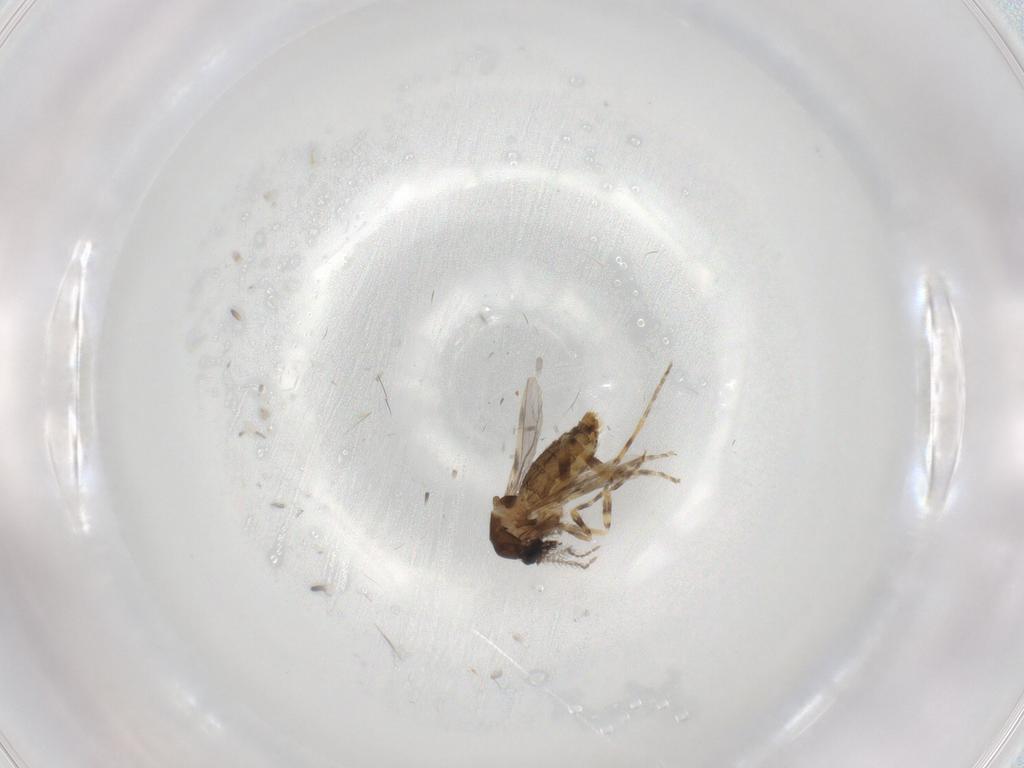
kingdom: Animalia
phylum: Arthropoda
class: Insecta
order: Diptera
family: Ceratopogonidae
